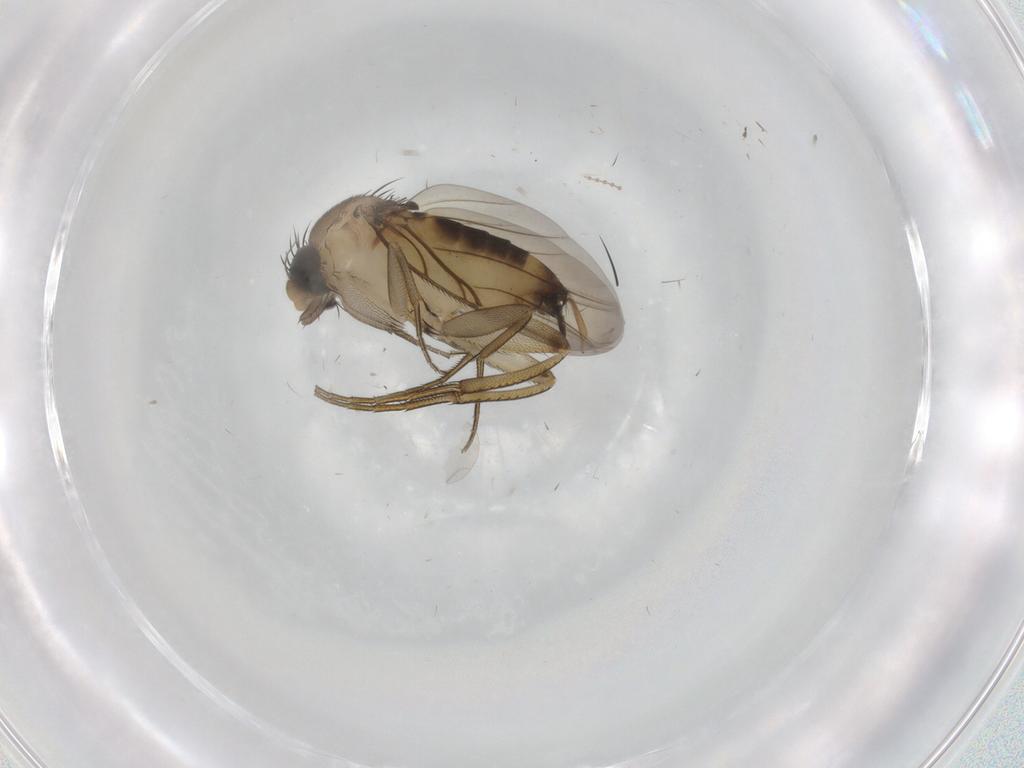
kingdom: Animalia
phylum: Arthropoda
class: Insecta
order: Diptera
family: Phoridae
